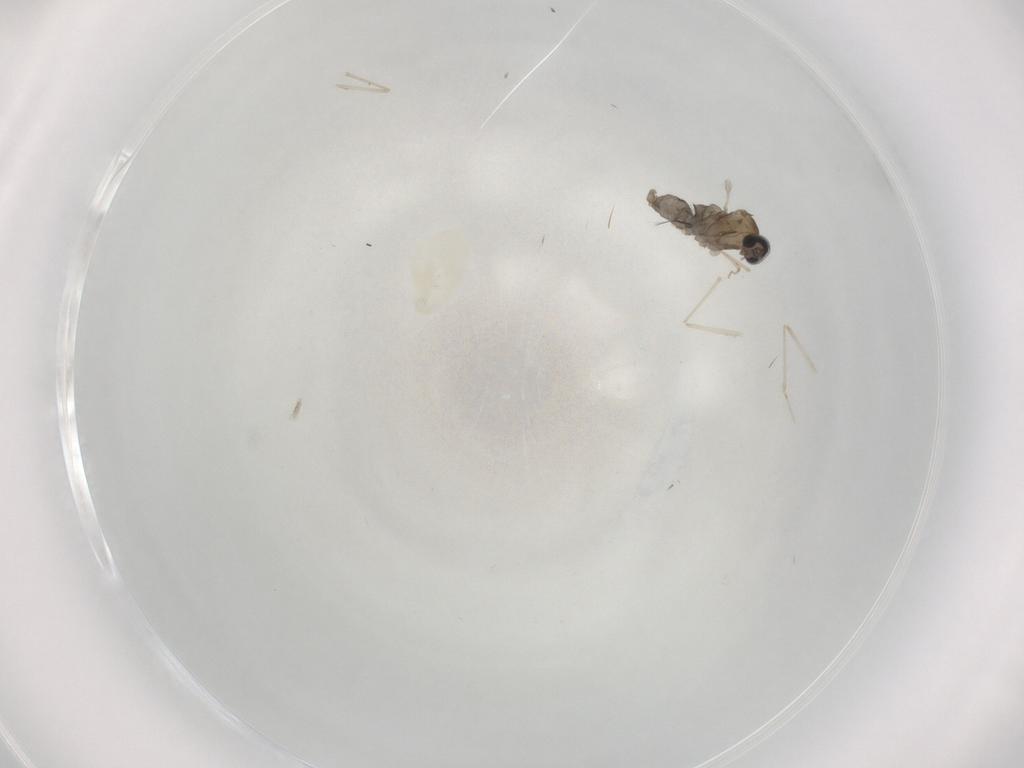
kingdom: Animalia
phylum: Arthropoda
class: Insecta
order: Diptera
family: Cecidomyiidae
